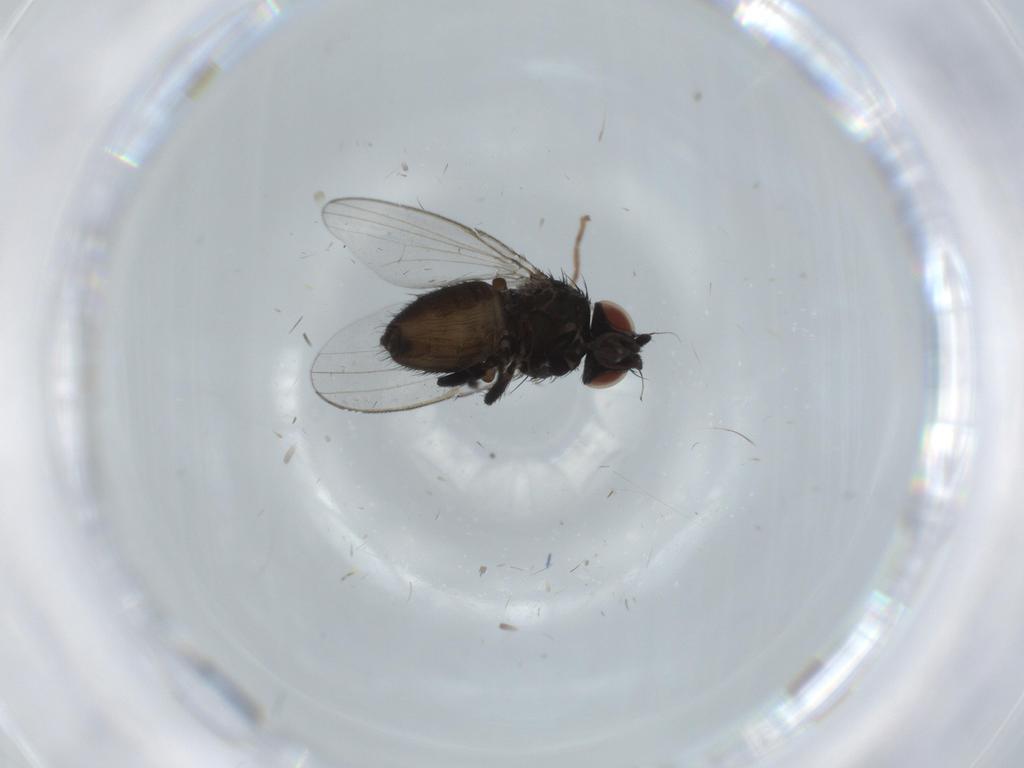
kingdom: Animalia
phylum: Arthropoda
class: Insecta
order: Diptera
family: Milichiidae
